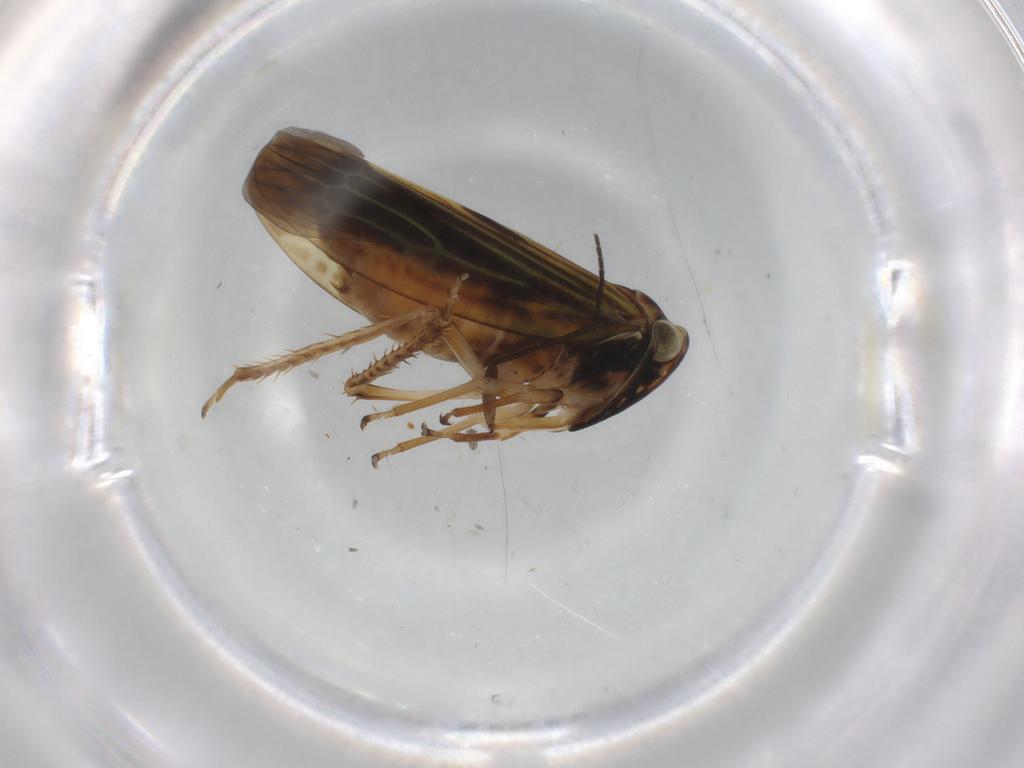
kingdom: Animalia
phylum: Arthropoda
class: Insecta
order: Hemiptera
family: Cicadellidae
